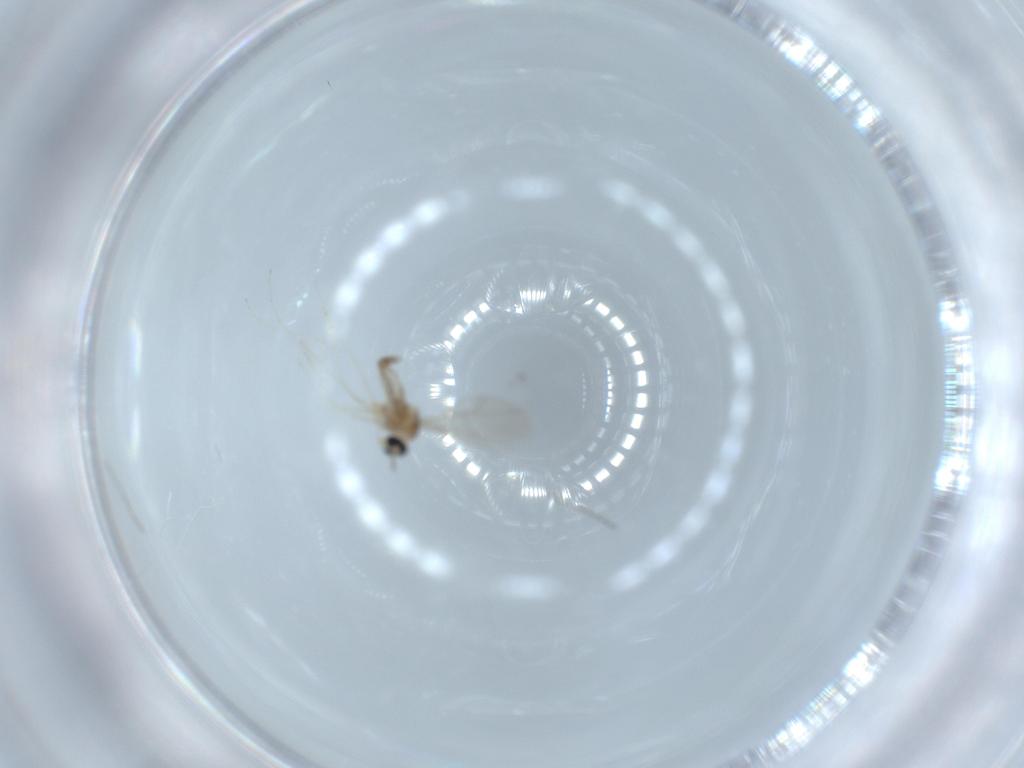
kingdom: Animalia
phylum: Arthropoda
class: Insecta
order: Diptera
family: Cecidomyiidae
